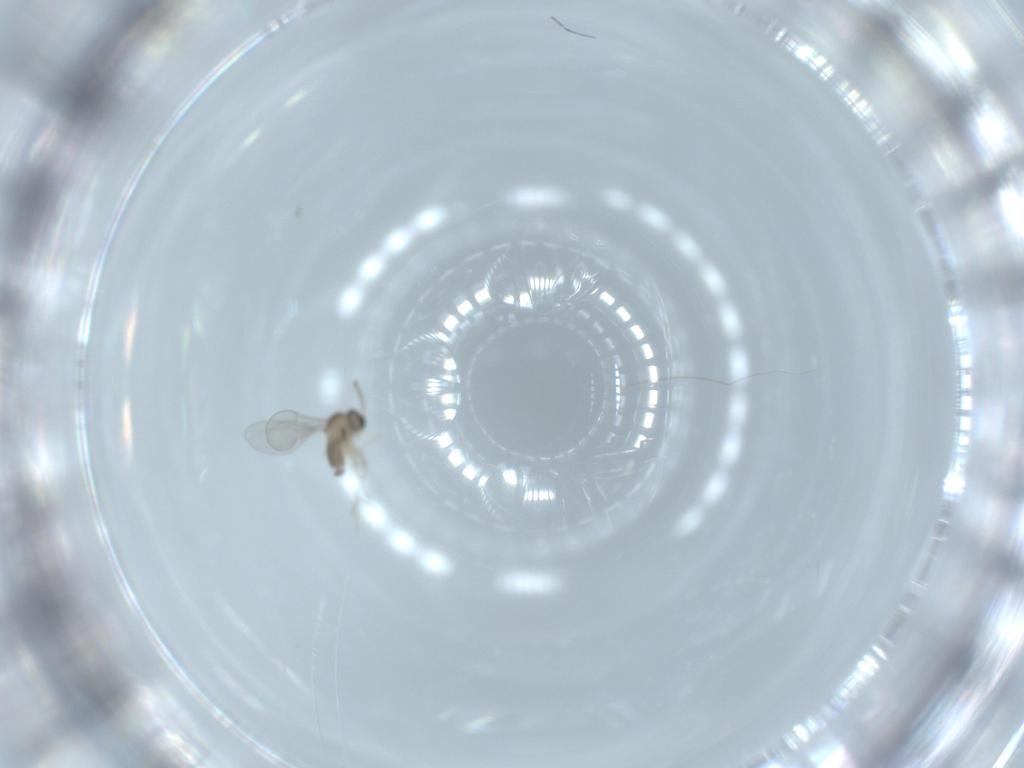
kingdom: Animalia
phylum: Arthropoda
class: Insecta
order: Diptera
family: Cecidomyiidae
